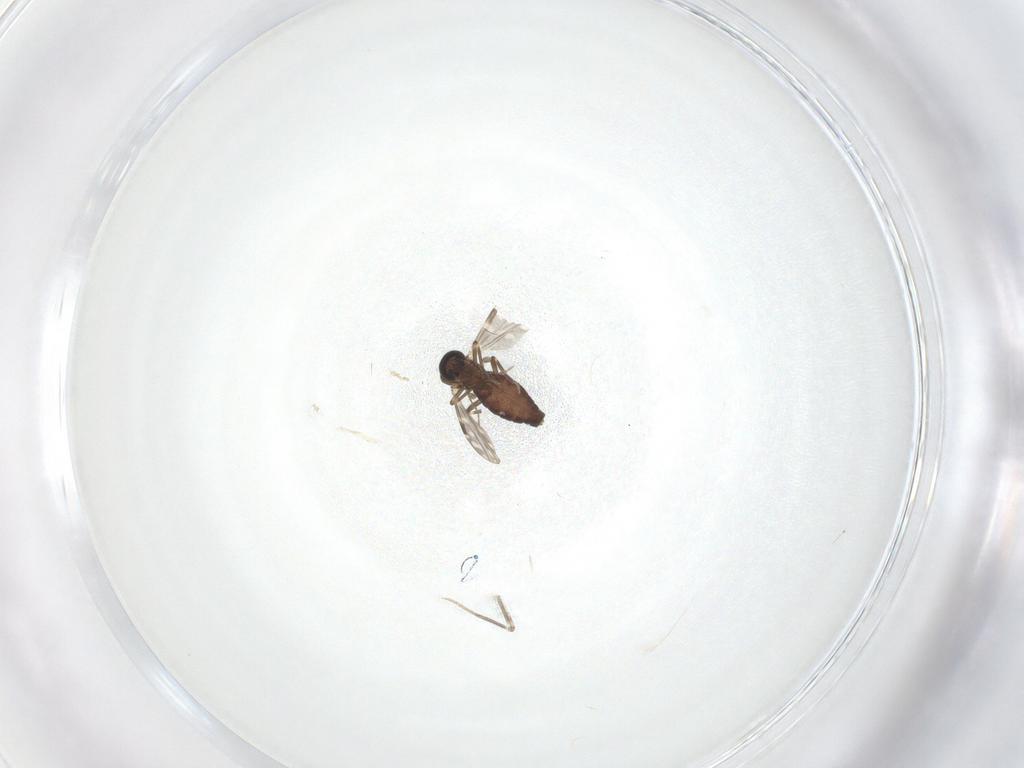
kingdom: Animalia
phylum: Arthropoda
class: Insecta
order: Diptera
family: Ceratopogonidae
